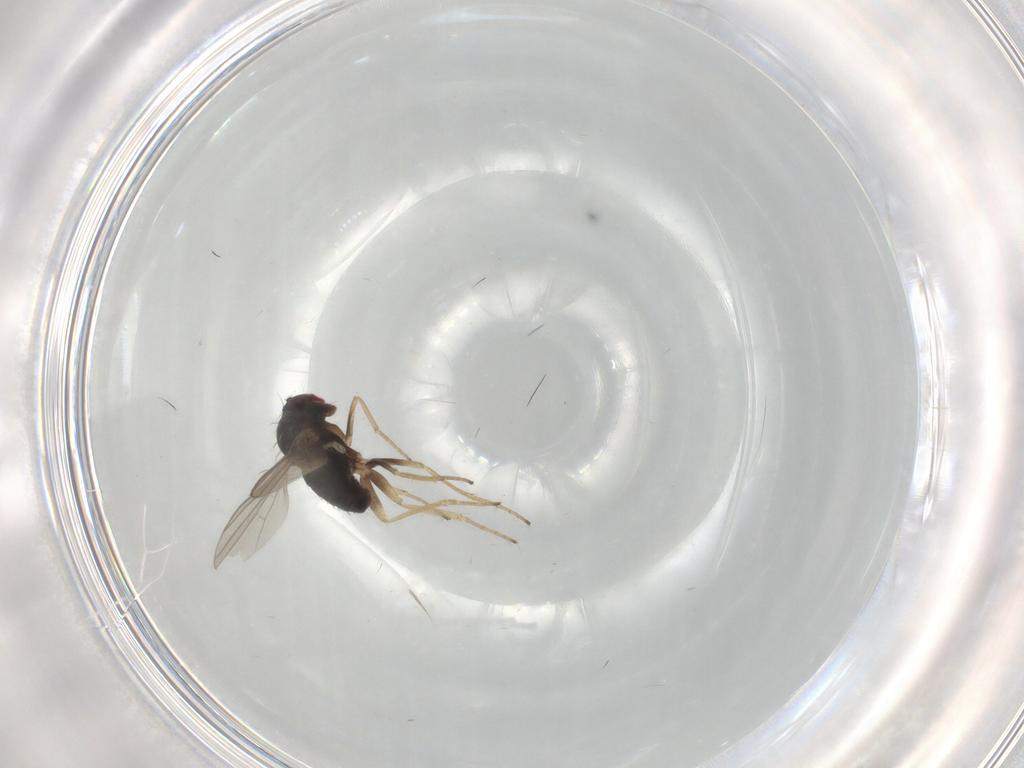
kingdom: Animalia
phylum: Arthropoda
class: Insecta
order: Diptera
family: Dolichopodidae
